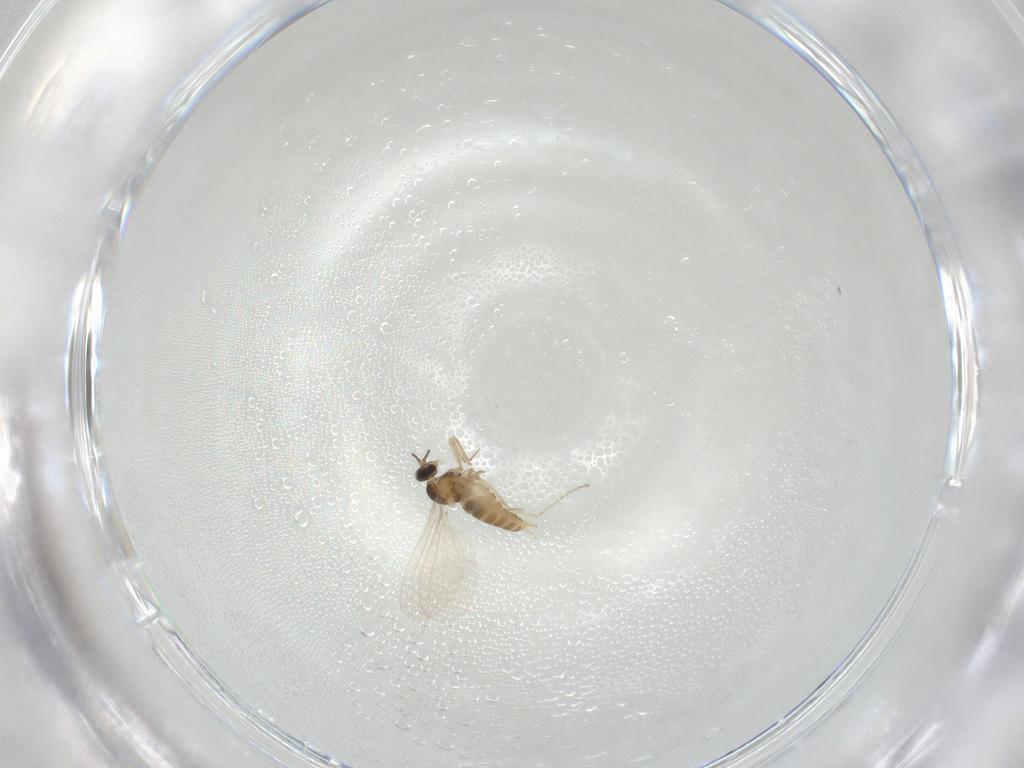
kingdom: Animalia
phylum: Arthropoda
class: Insecta
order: Diptera
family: Cecidomyiidae
